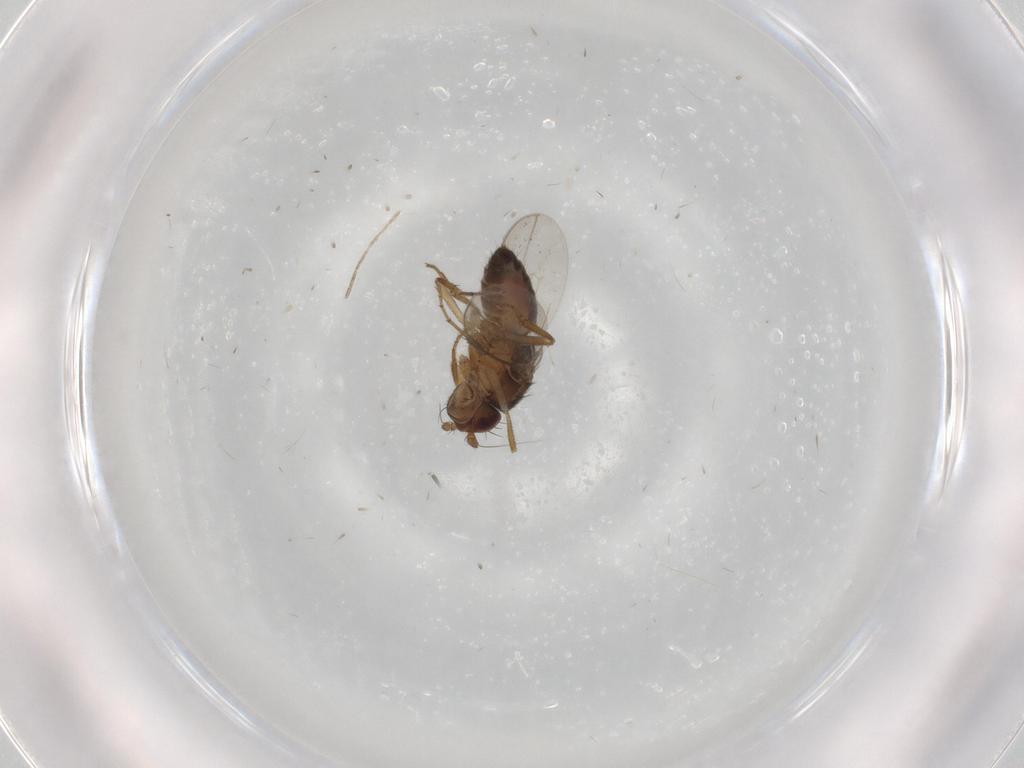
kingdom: Animalia
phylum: Arthropoda
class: Insecta
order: Diptera
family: Sphaeroceridae
